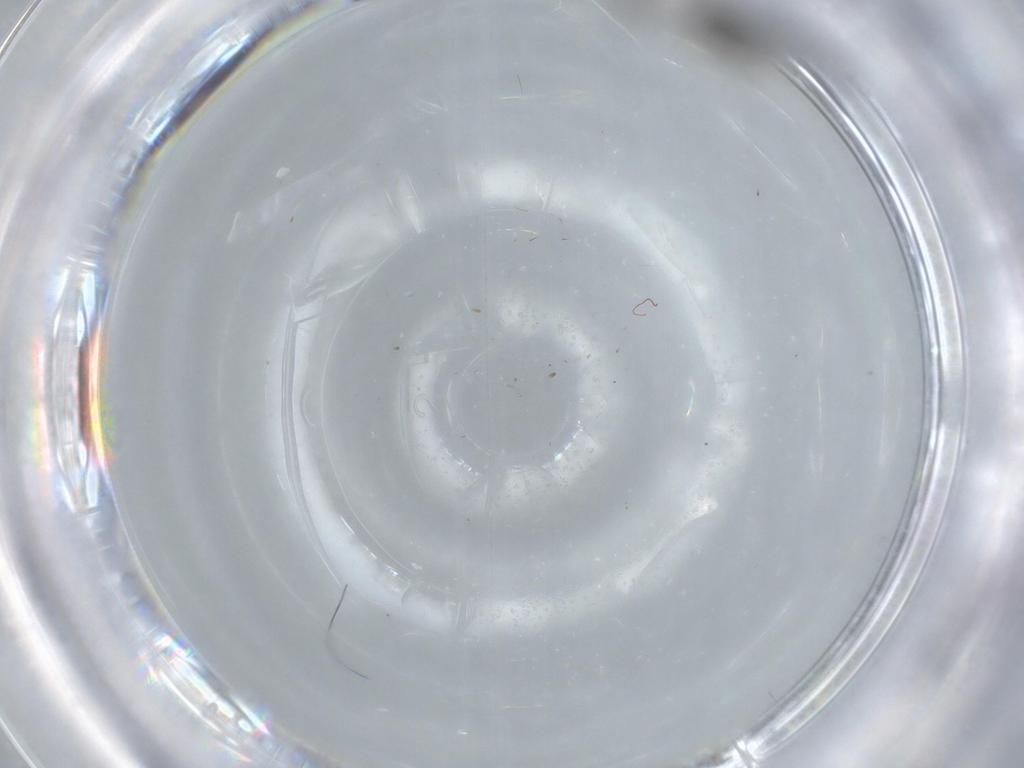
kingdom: Animalia
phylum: Arthropoda
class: Insecta
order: Diptera
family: Chironomidae
